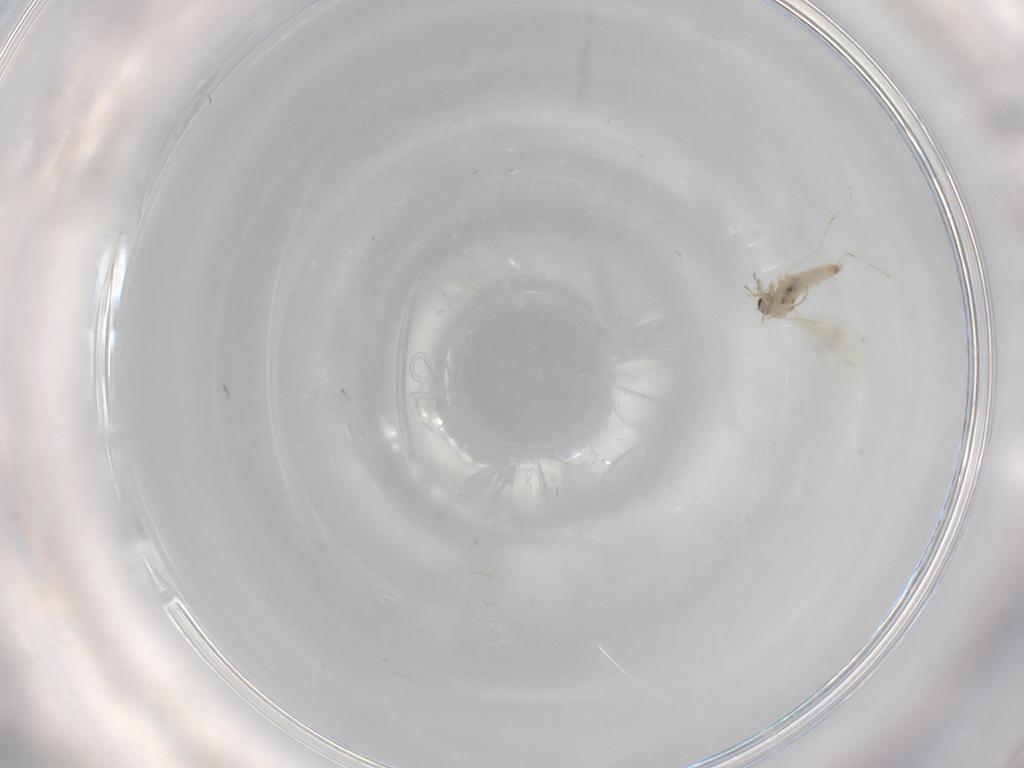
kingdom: Animalia
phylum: Arthropoda
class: Insecta
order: Diptera
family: Cecidomyiidae
